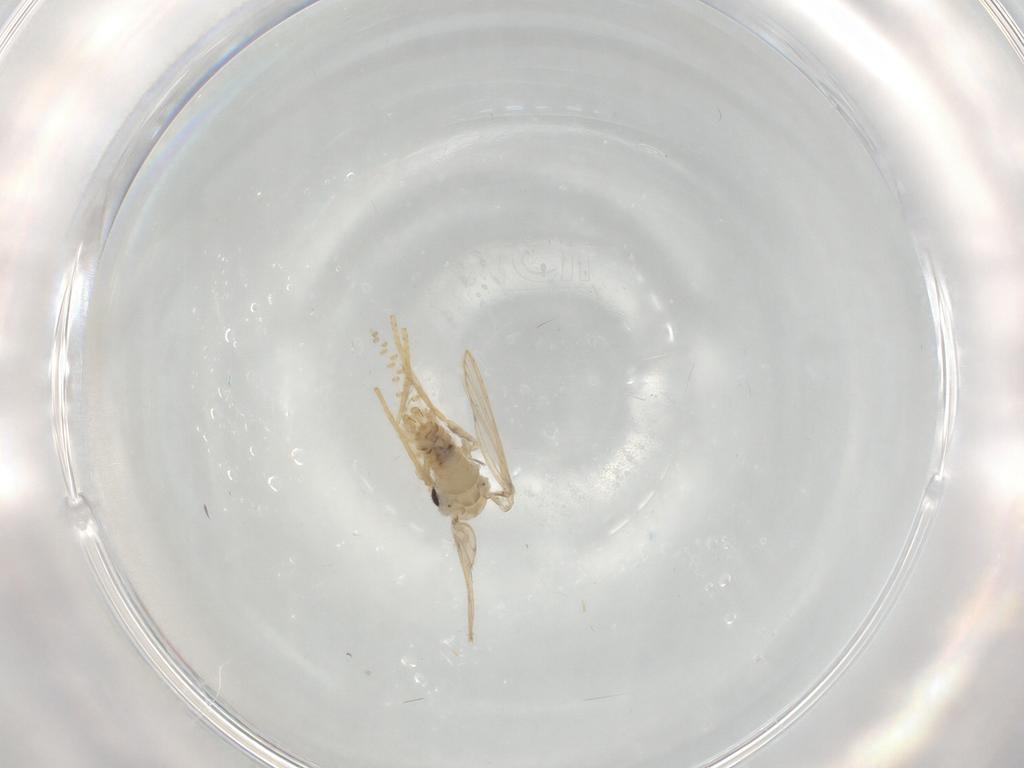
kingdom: Animalia
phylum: Arthropoda
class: Insecta
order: Diptera
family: Psychodidae
